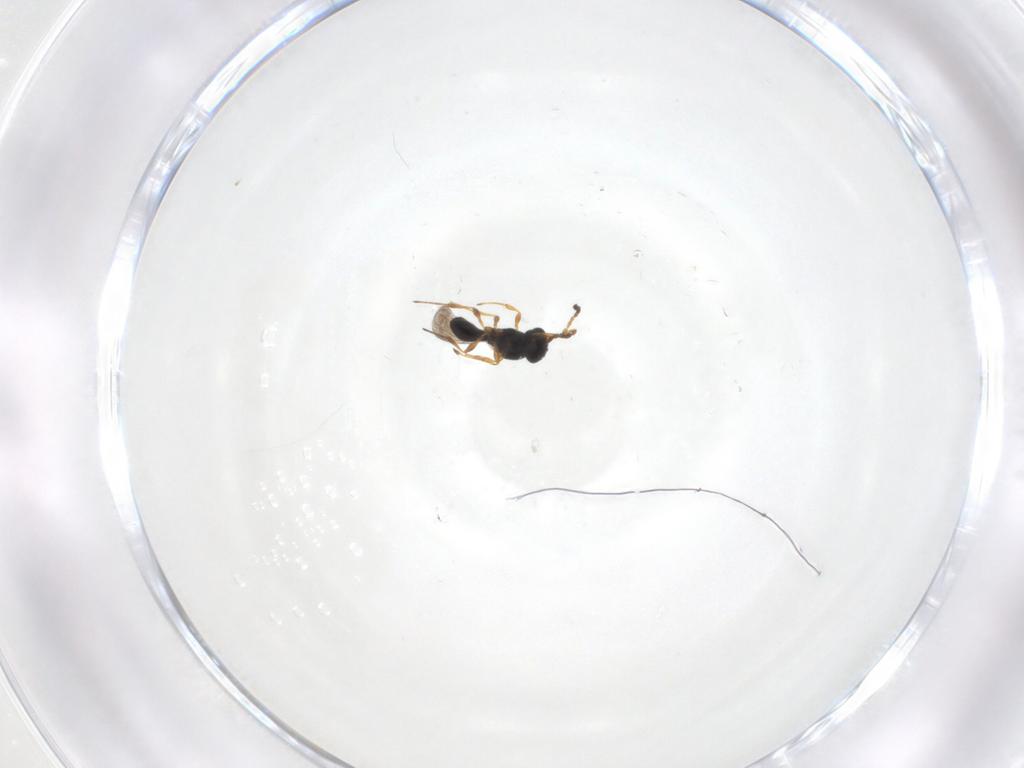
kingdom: Animalia
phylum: Arthropoda
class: Insecta
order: Hymenoptera
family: Platygastridae
